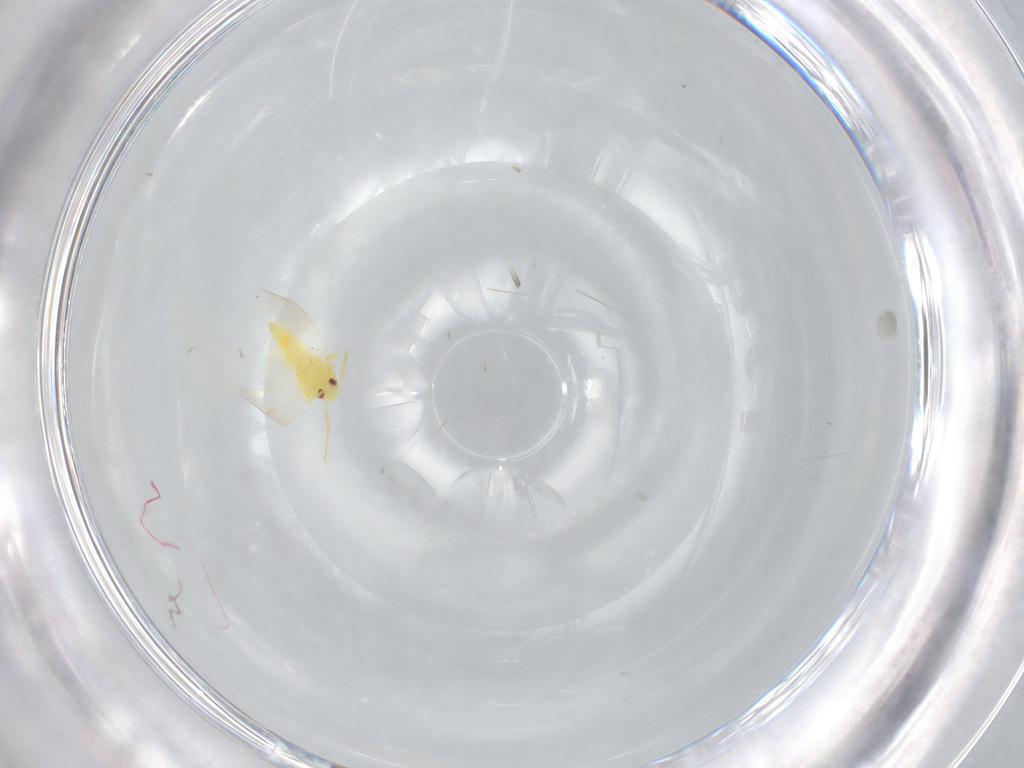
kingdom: Animalia
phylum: Arthropoda
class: Insecta
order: Hemiptera
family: Aleyrodidae
